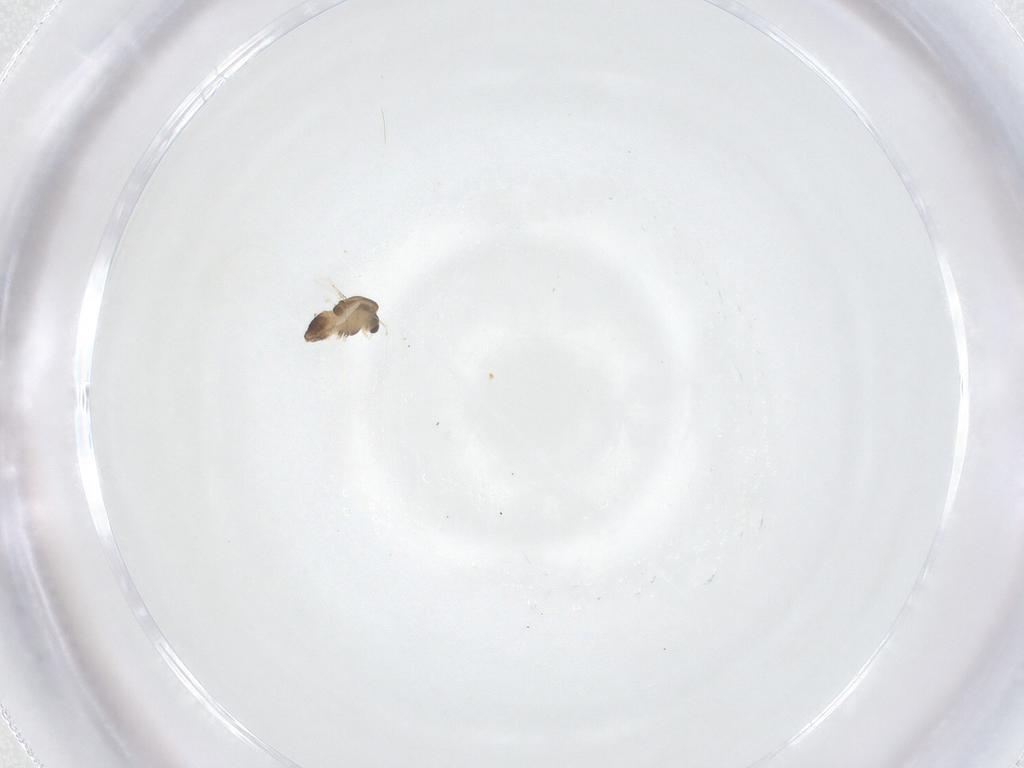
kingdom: Animalia
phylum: Arthropoda
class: Insecta
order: Diptera
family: Chironomidae
